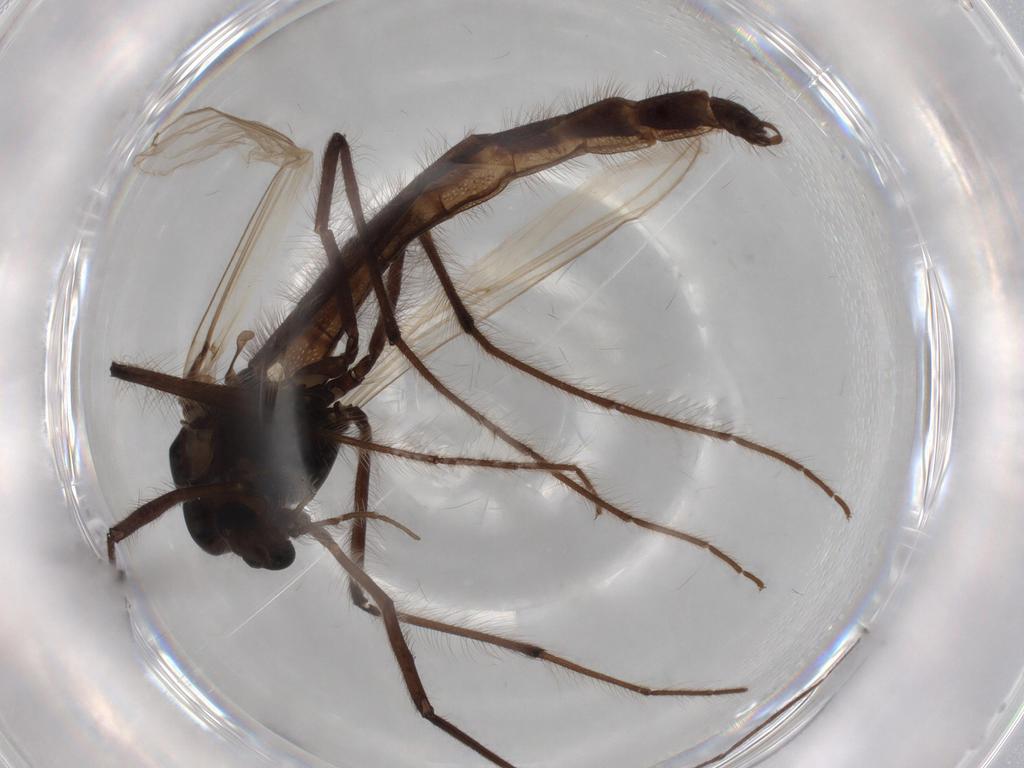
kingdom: Animalia
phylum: Arthropoda
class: Insecta
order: Diptera
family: Chironomidae
